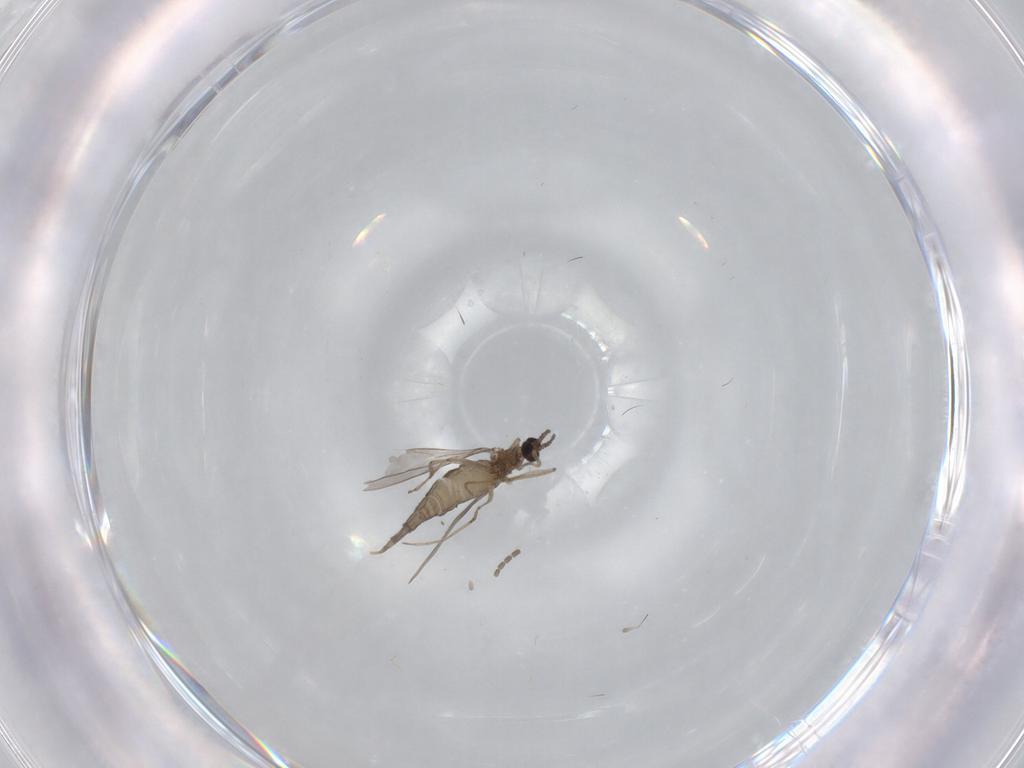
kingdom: Animalia
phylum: Arthropoda
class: Insecta
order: Diptera
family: Cecidomyiidae
